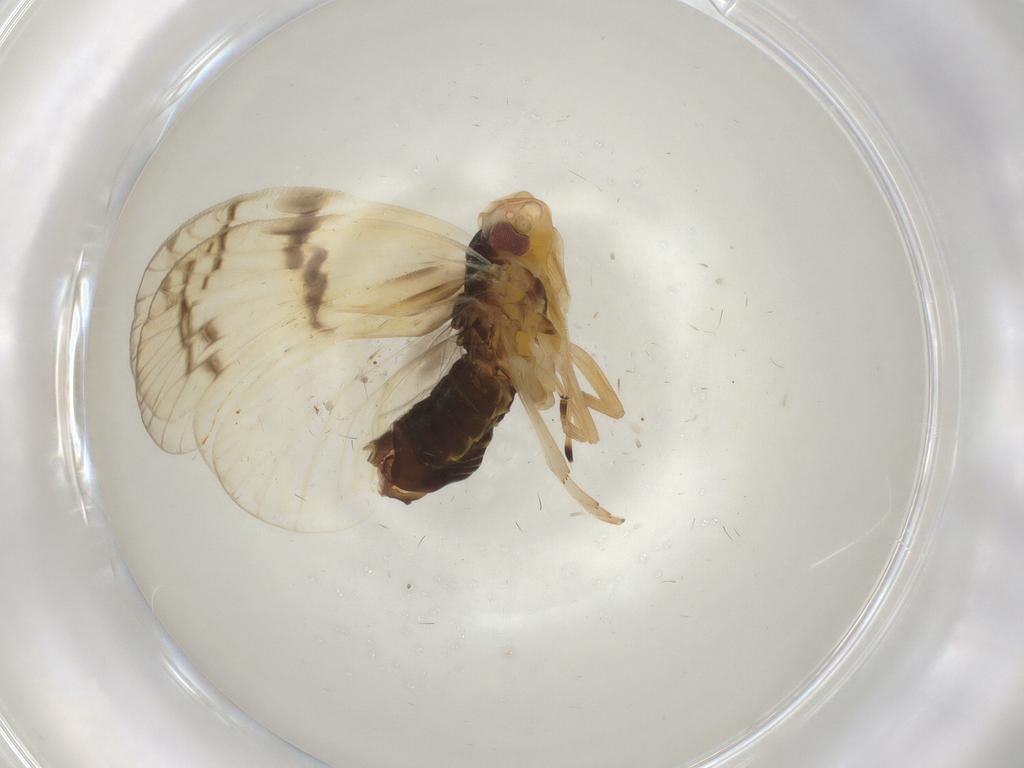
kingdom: Animalia
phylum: Arthropoda
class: Insecta
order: Hemiptera
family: Cixiidae
